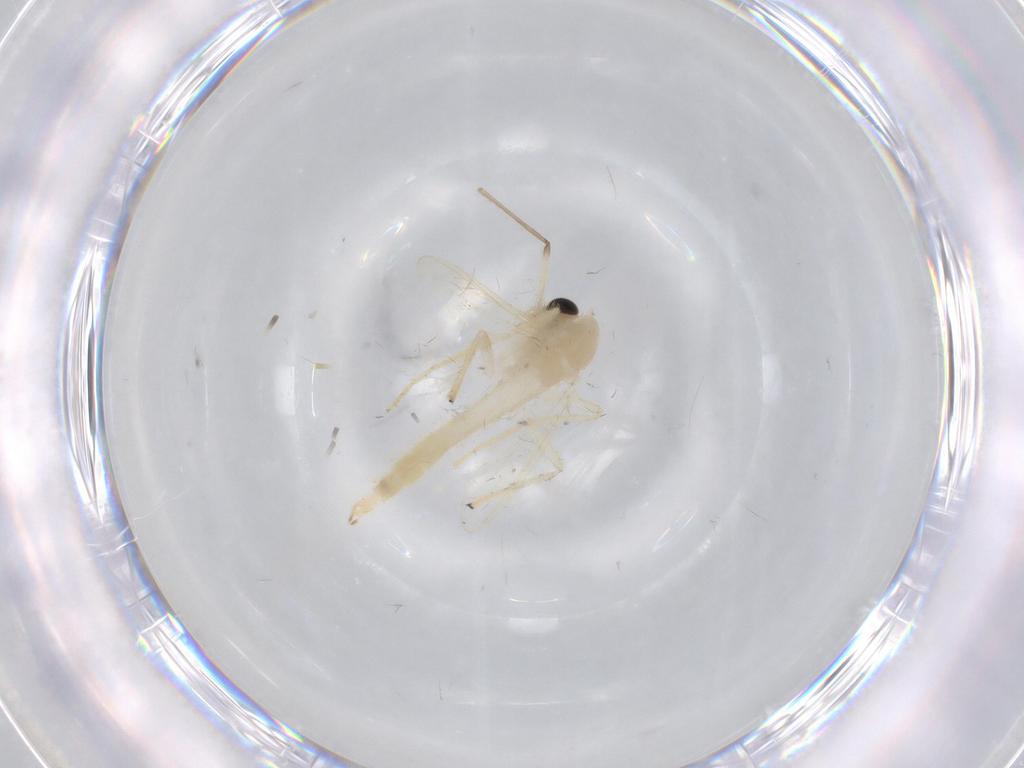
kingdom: Animalia
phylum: Arthropoda
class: Insecta
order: Diptera
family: Chironomidae
